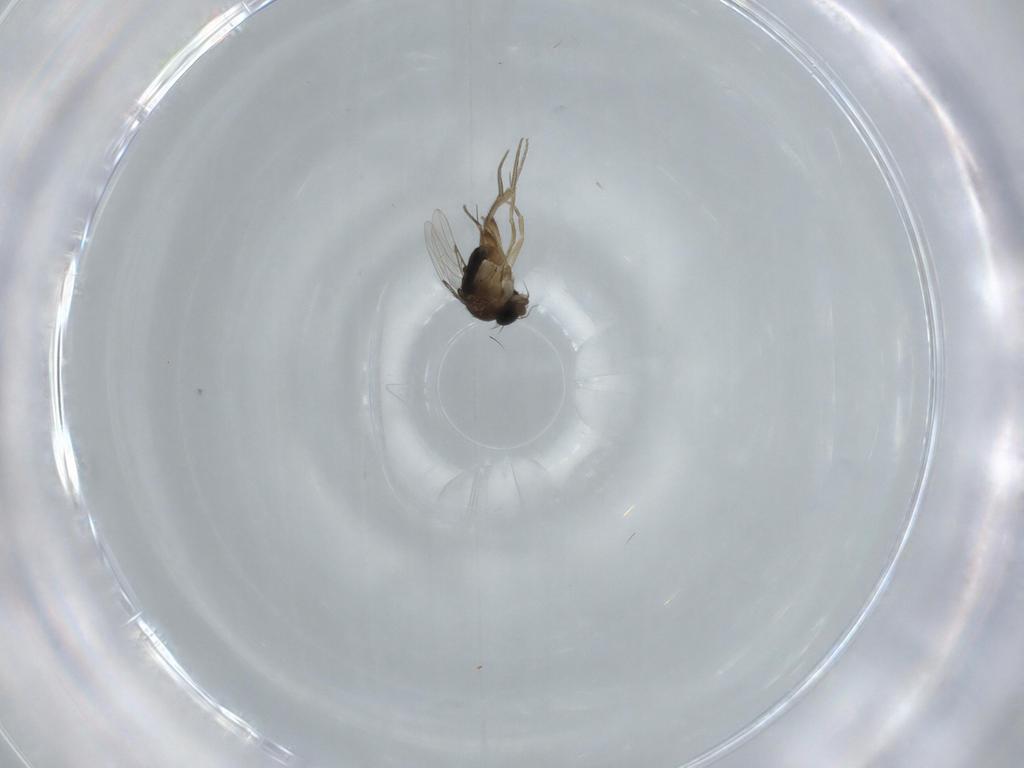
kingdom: Animalia
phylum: Arthropoda
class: Insecta
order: Diptera
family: Phoridae
